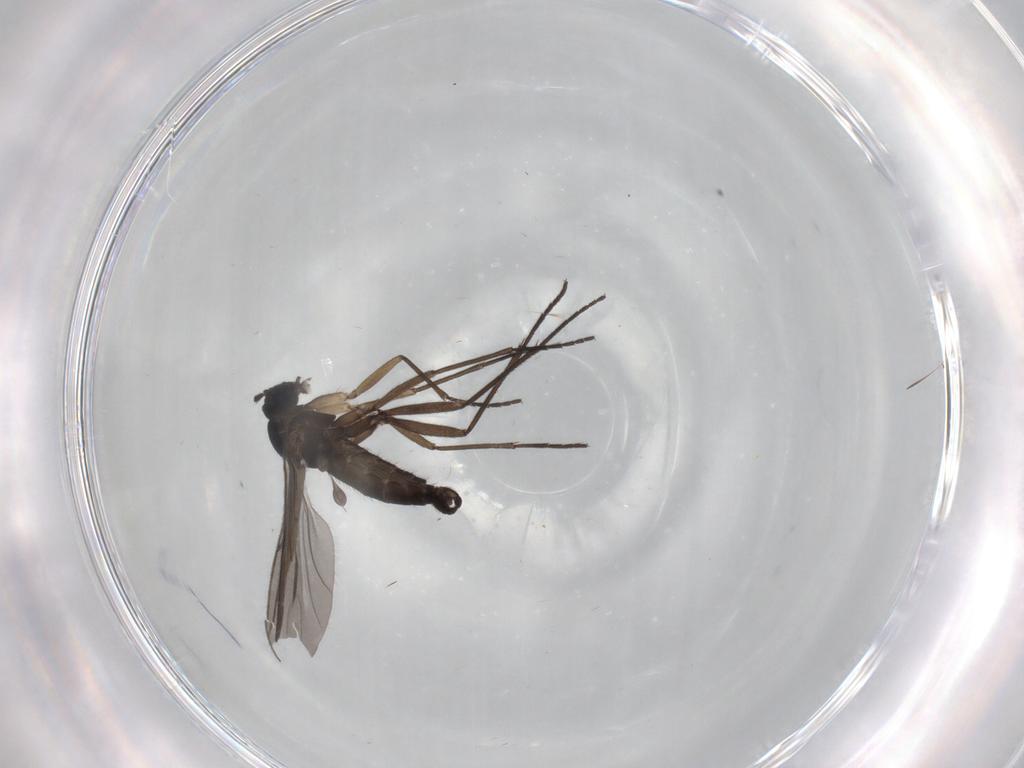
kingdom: Animalia
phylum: Arthropoda
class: Insecta
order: Diptera
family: Sciaridae
